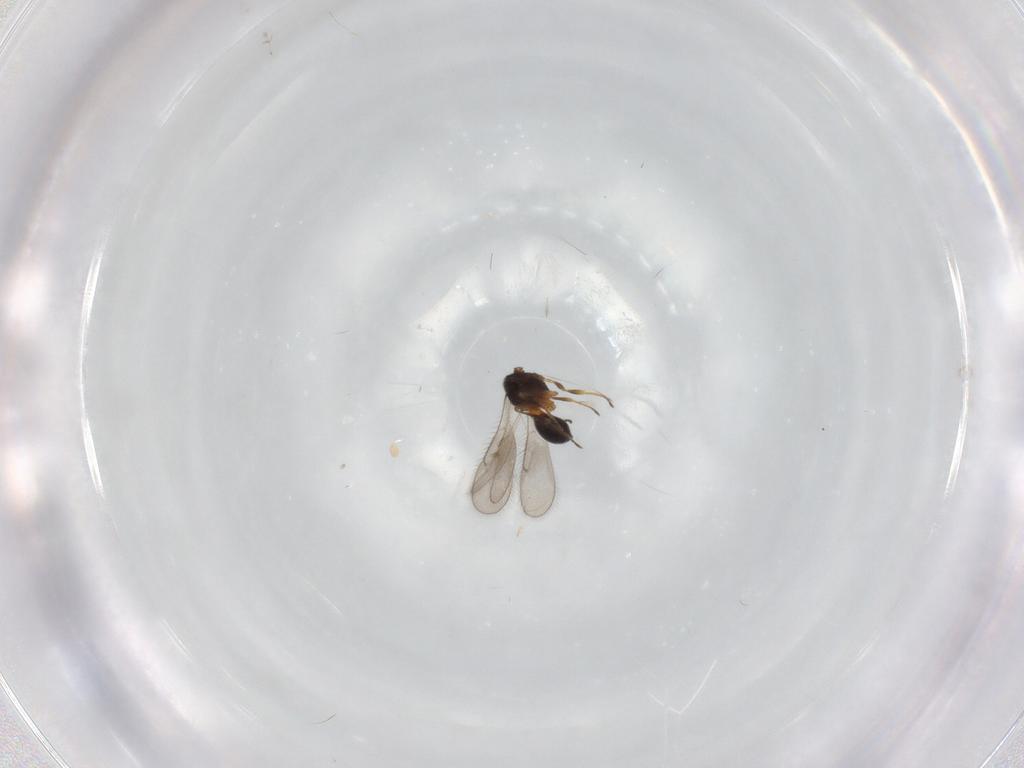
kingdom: Animalia
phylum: Arthropoda
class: Insecta
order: Hymenoptera
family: Scelionidae
